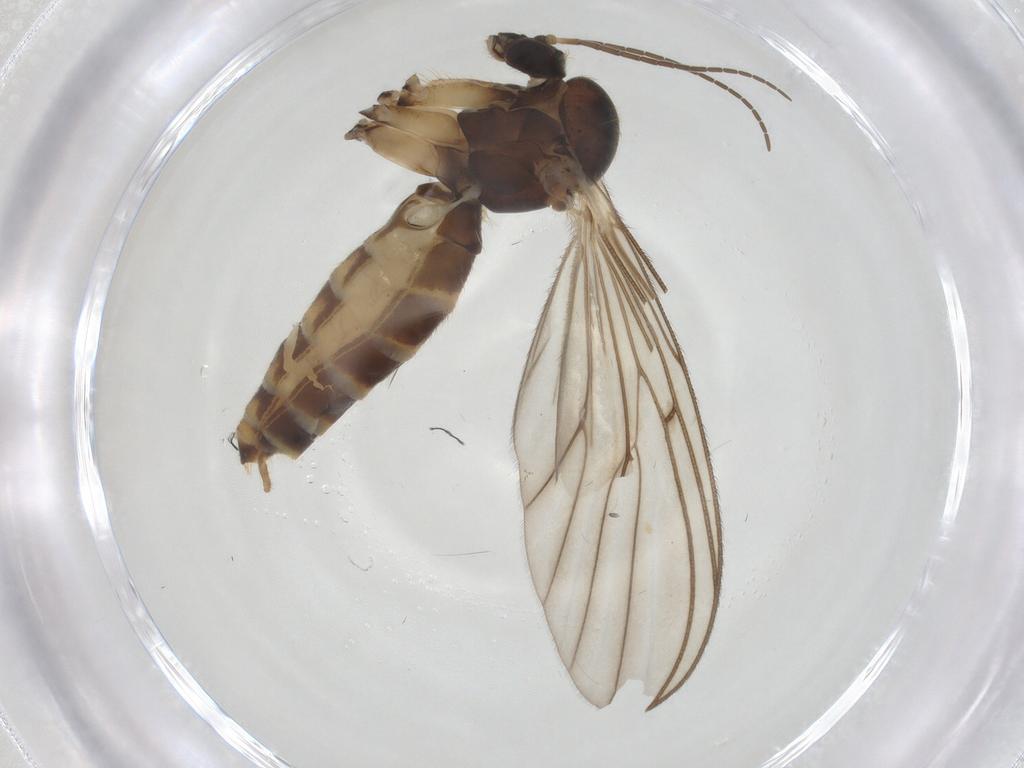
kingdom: Animalia
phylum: Arthropoda
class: Insecta
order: Diptera
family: Mycetophilidae
